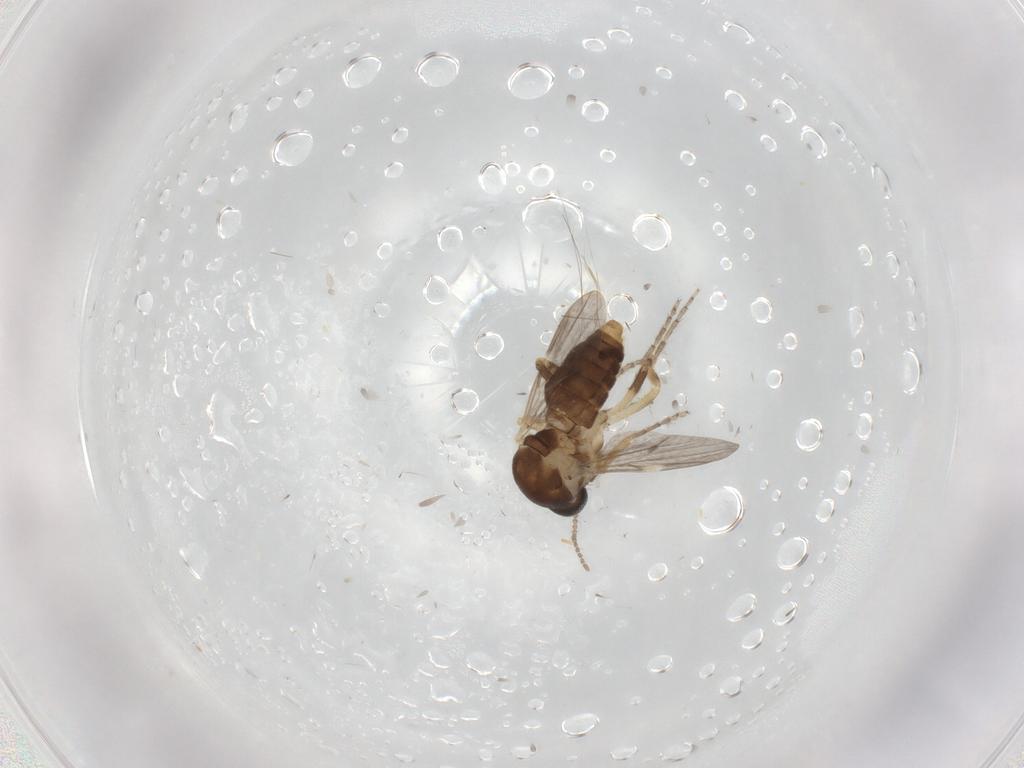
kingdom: Animalia
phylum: Arthropoda
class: Insecta
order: Diptera
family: Ceratopogonidae
